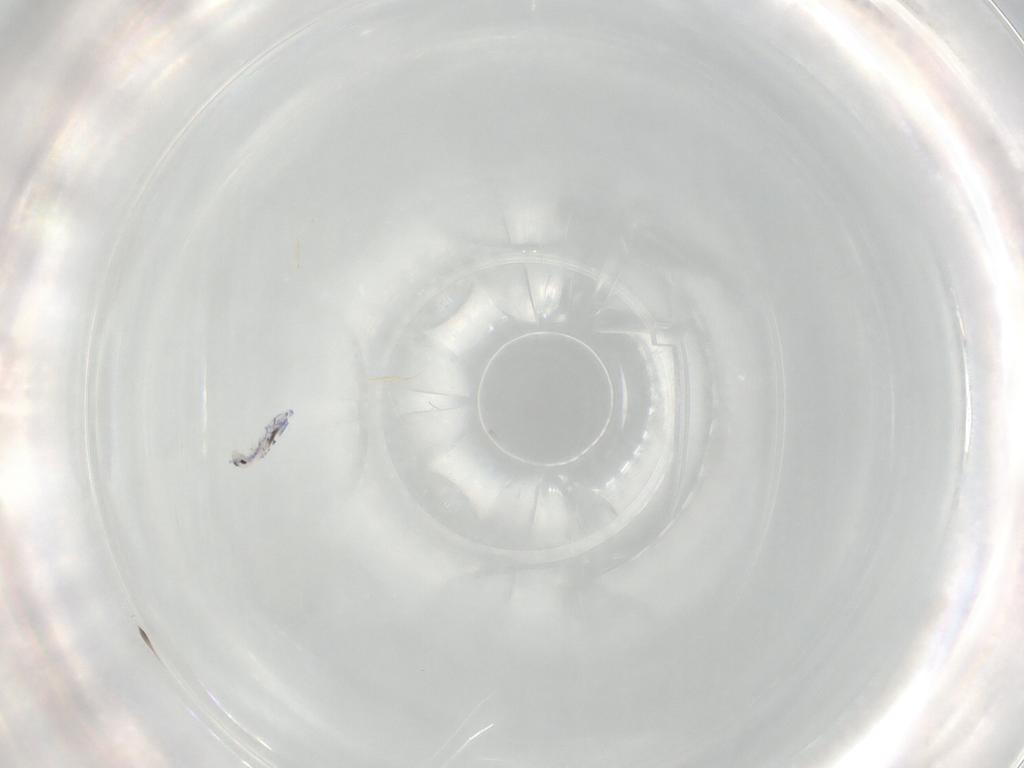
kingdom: Animalia
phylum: Arthropoda
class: Collembola
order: Entomobryomorpha
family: Entomobryidae
